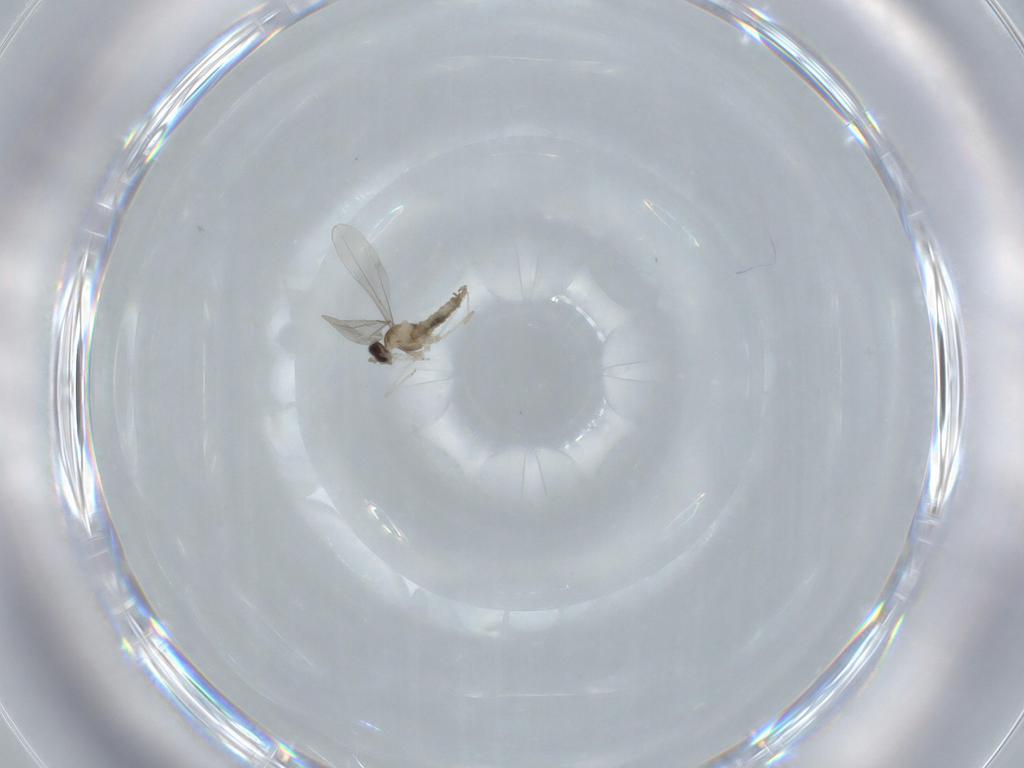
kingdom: Animalia
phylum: Arthropoda
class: Insecta
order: Diptera
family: Cecidomyiidae
